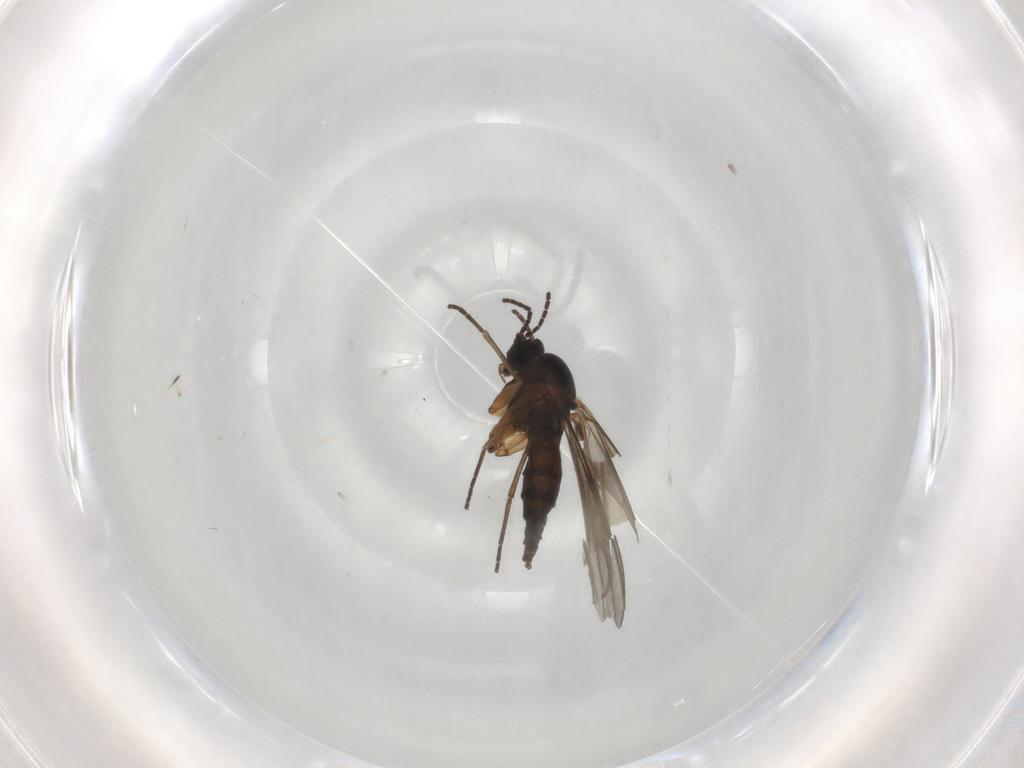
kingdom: Animalia
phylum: Arthropoda
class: Insecta
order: Diptera
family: Sciaridae
